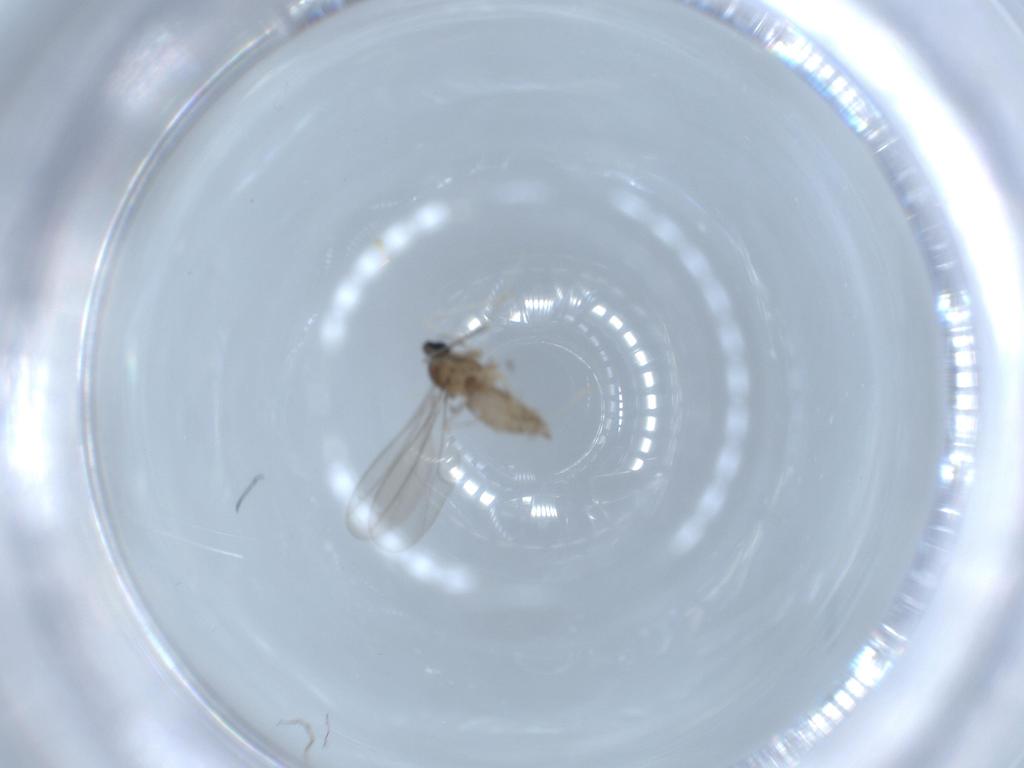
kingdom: Animalia
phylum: Arthropoda
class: Insecta
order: Diptera
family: Cecidomyiidae
